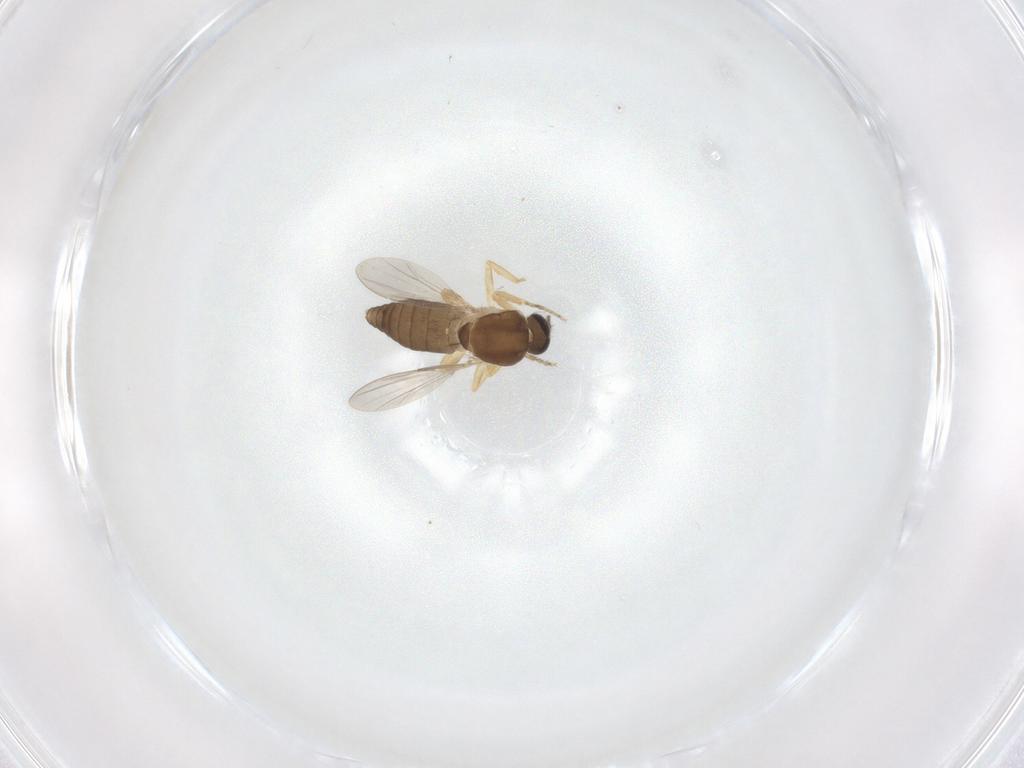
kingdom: Animalia
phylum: Arthropoda
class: Insecta
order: Diptera
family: Ceratopogonidae
